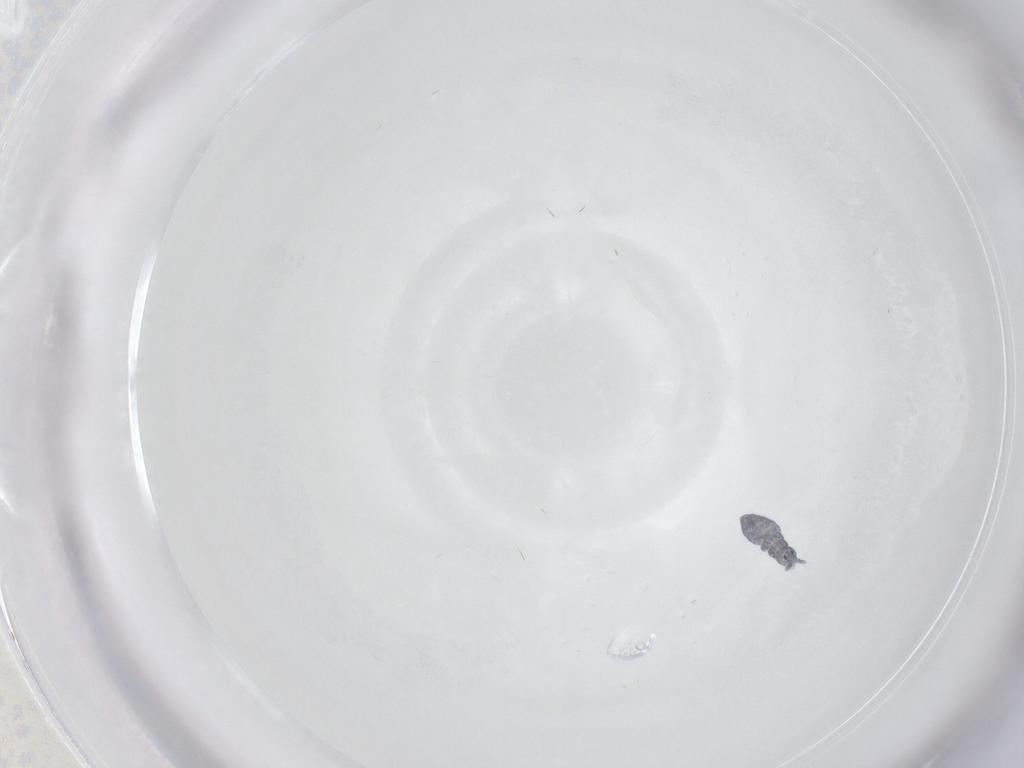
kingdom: Animalia
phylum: Arthropoda
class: Collembola
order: Poduromorpha
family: Hypogastruridae
